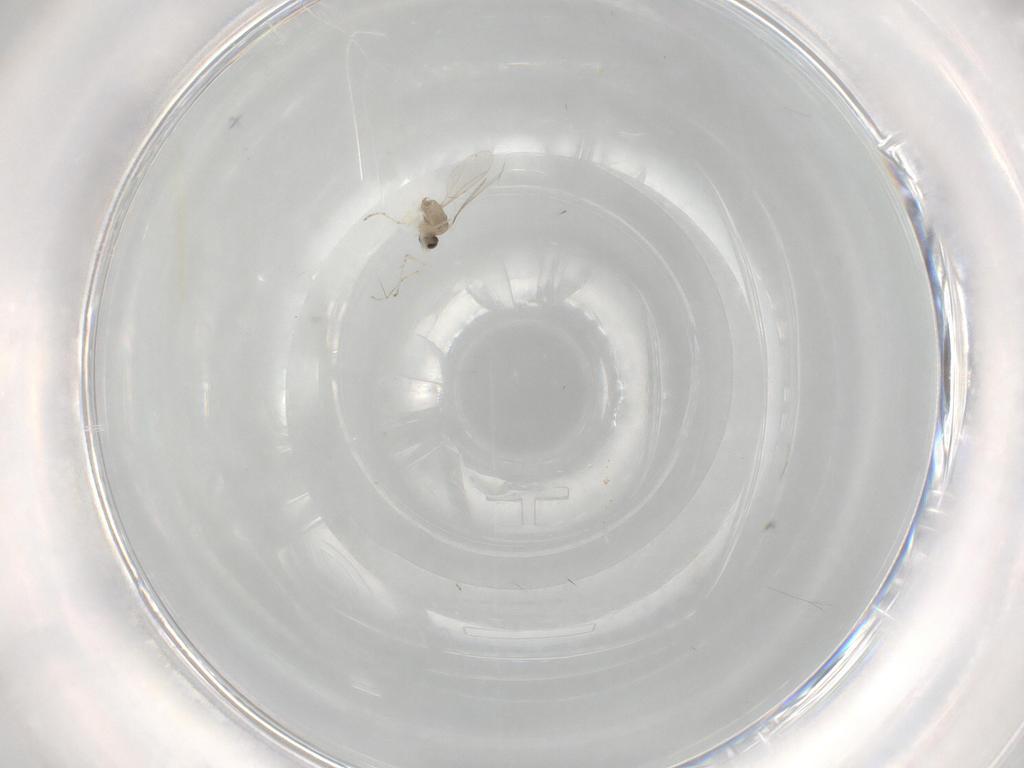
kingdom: Animalia
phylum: Arthropoda
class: Insecta
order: Diptera
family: Cecidomyiidae
